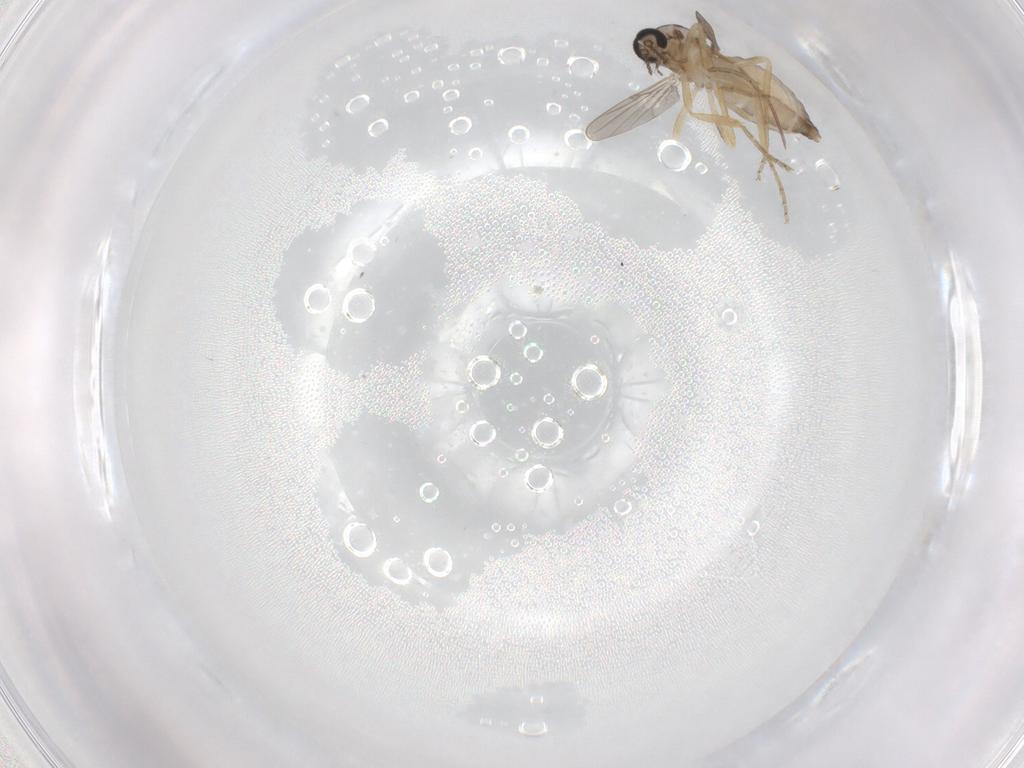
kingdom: Animalia
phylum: Arthropoda
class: Insecta
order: Diptera
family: Ceratopogonidae
